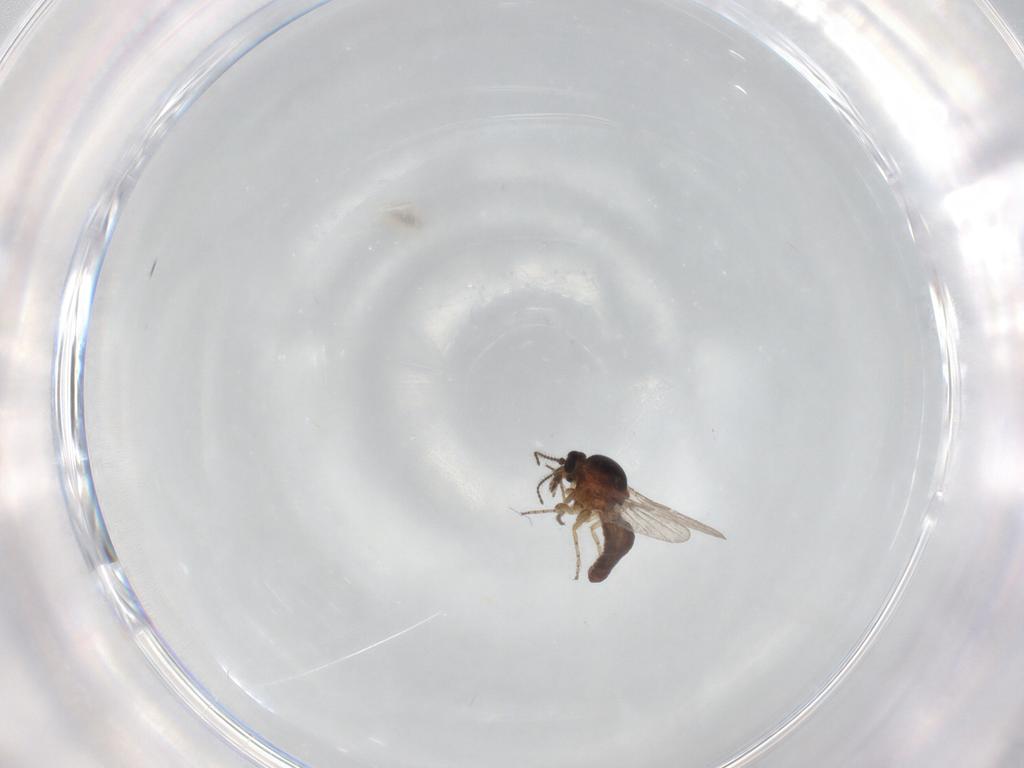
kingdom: Animalia
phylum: Arthropoda
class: Insecta
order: Diptera
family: Ceratopogonidae
